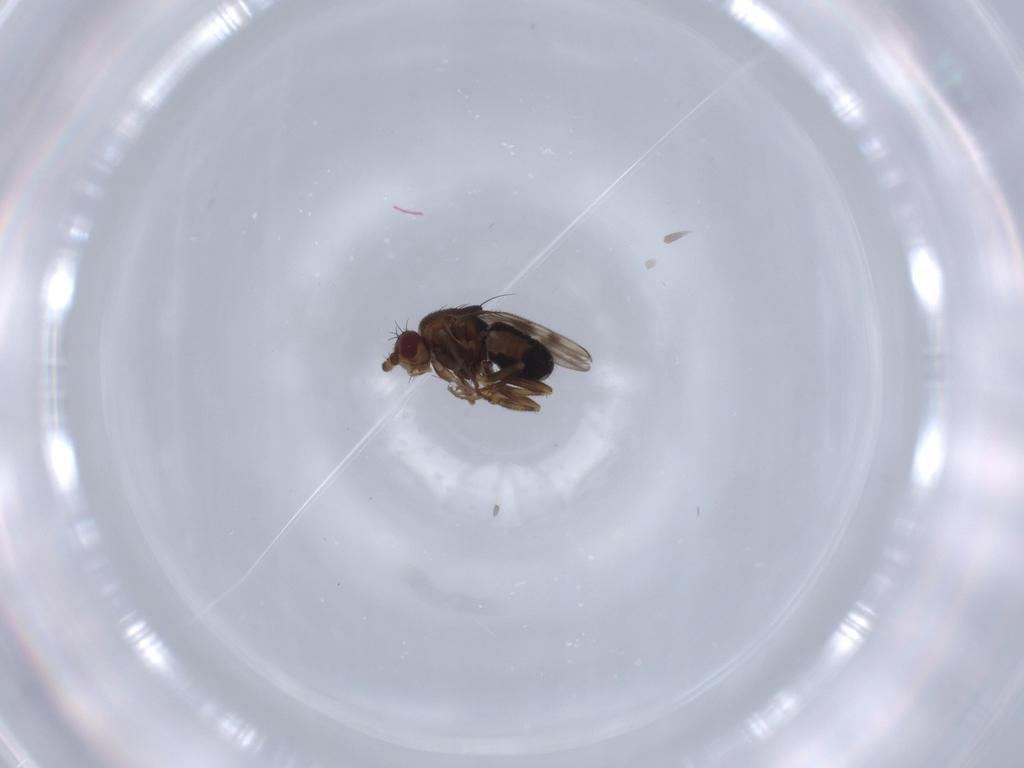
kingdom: Animalia
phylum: Arthropoda
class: Insecta
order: Diptera
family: Sphaeroceridae
